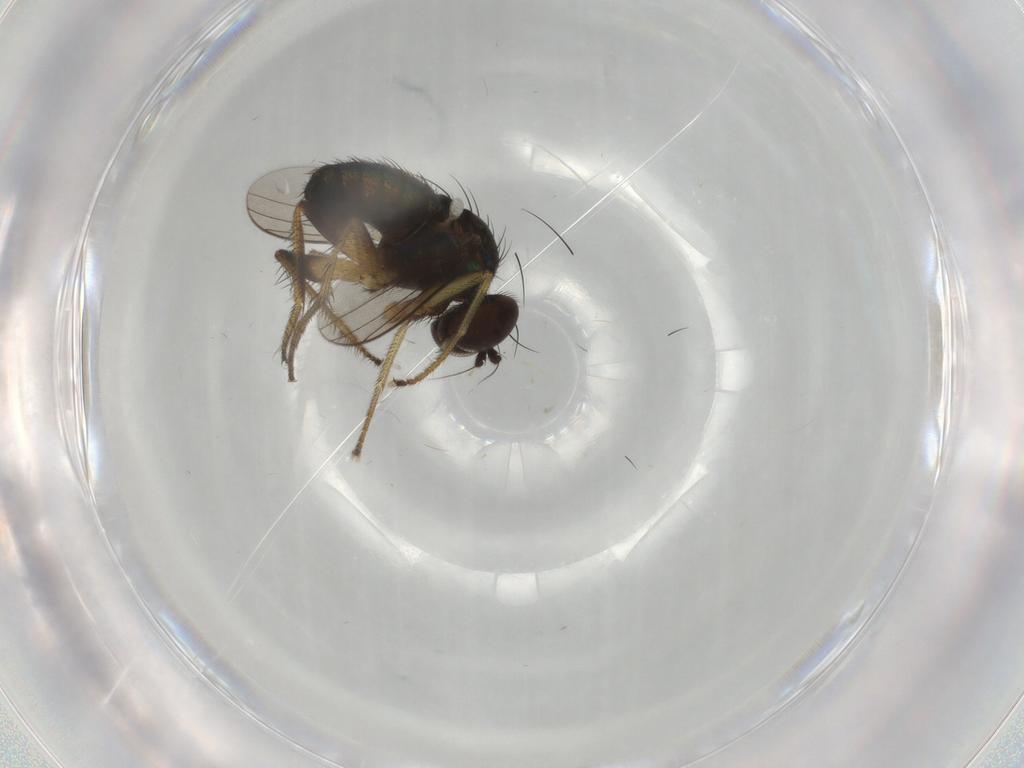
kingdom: Animalia
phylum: Arthropoda
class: Insecta
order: Diptera
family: Dolichopodidae
